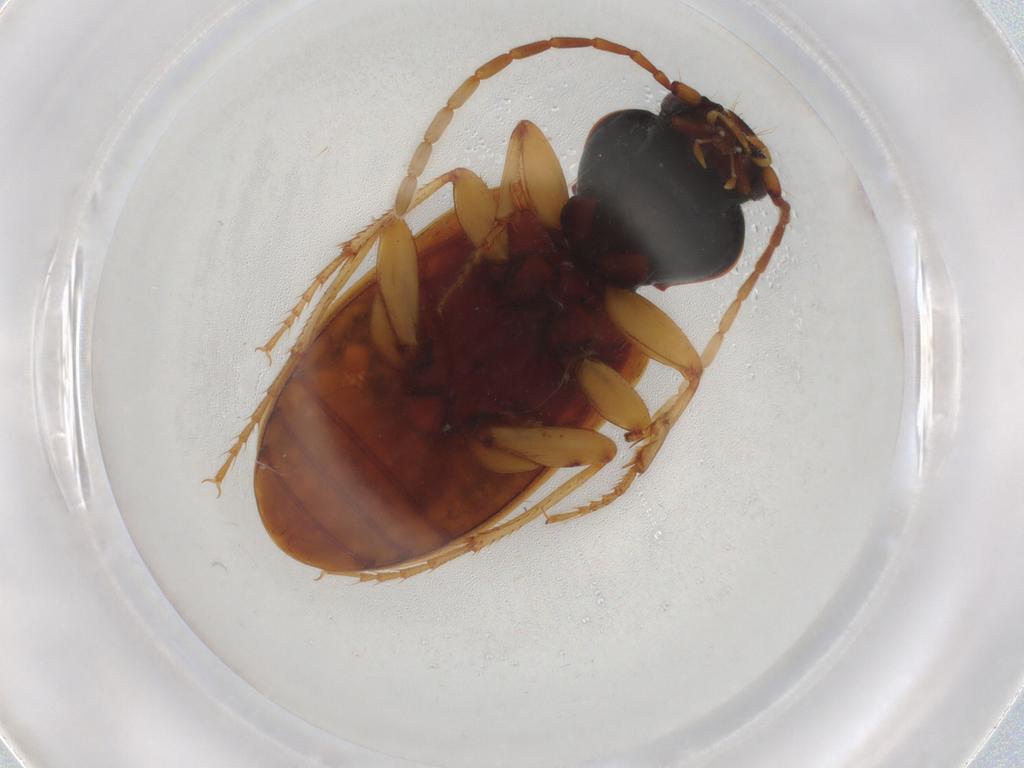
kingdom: Animalia
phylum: Arthropoda
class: Insecta
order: Coleoptera
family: Carabidae
